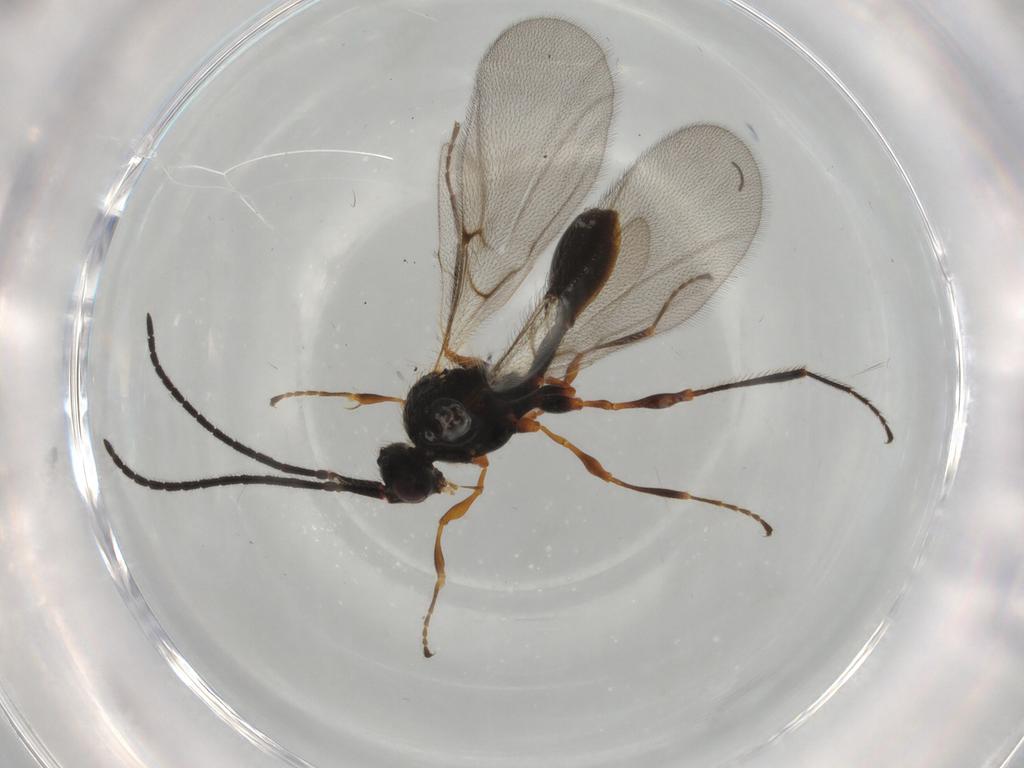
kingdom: Animalia
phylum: Arthropoda
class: Insecta
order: Hymenoptera
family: Diapriidae
